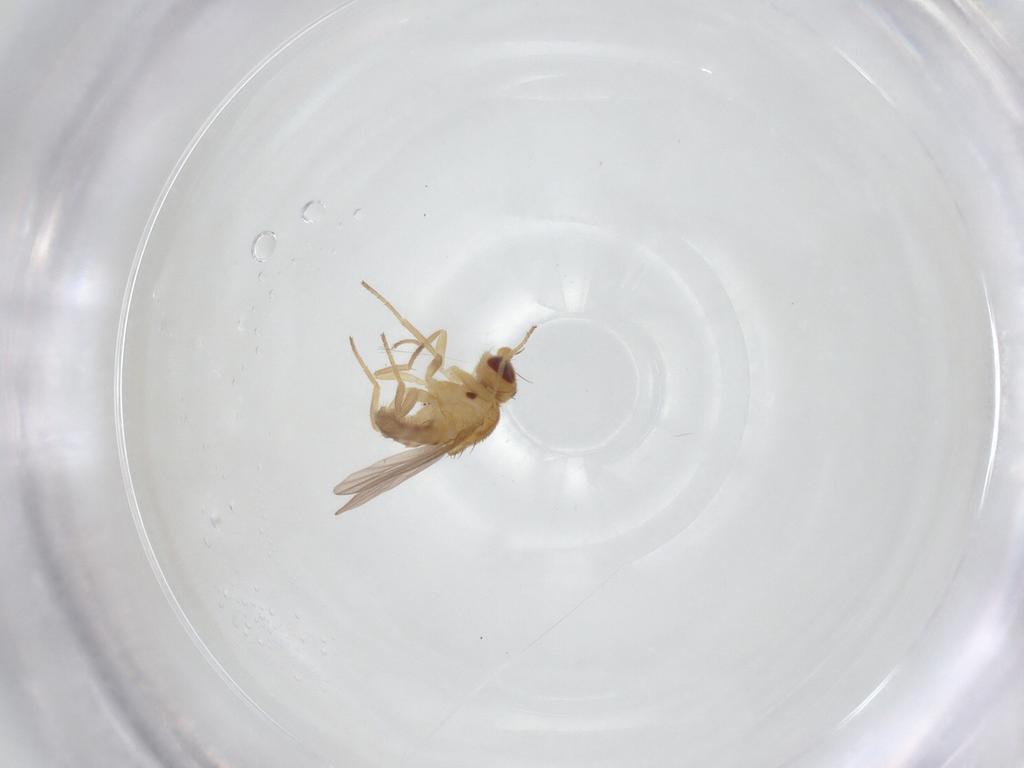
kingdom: Animalia
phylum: Arthropoda
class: Insecta
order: Diptera
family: Chloropidae
